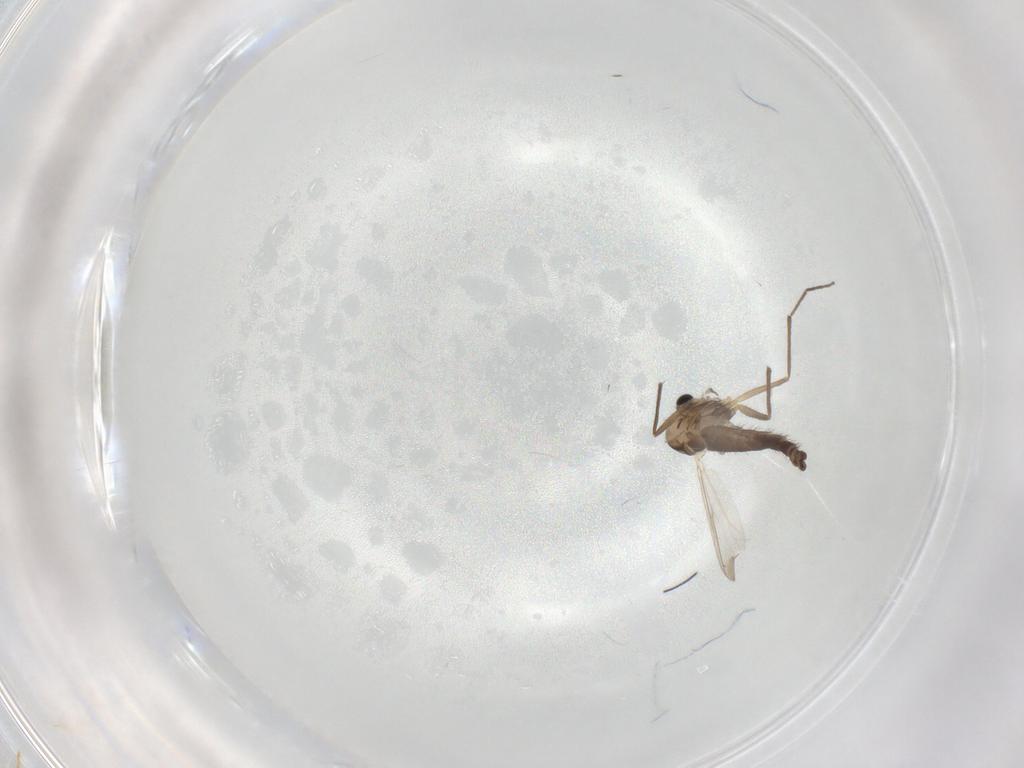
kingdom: Animalia
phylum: Arthropoda
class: Insecta
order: Diptera
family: Chironomidae
